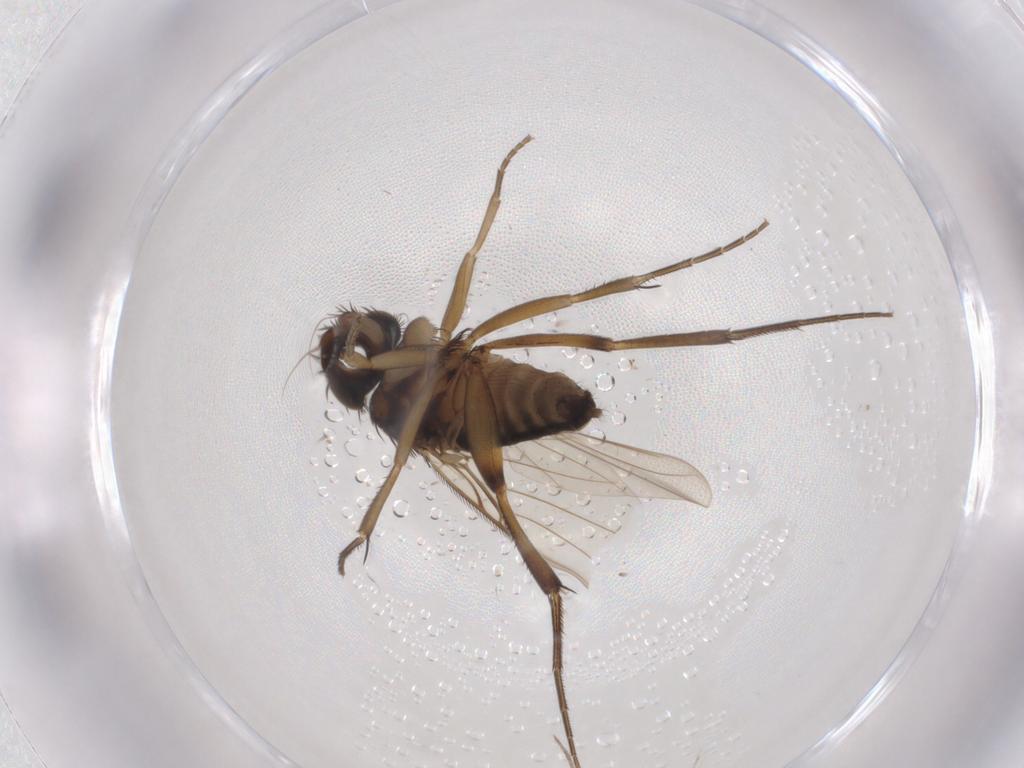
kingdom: Animalia
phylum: Arthropoda
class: Insecta
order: Diptera
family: Phoridae
